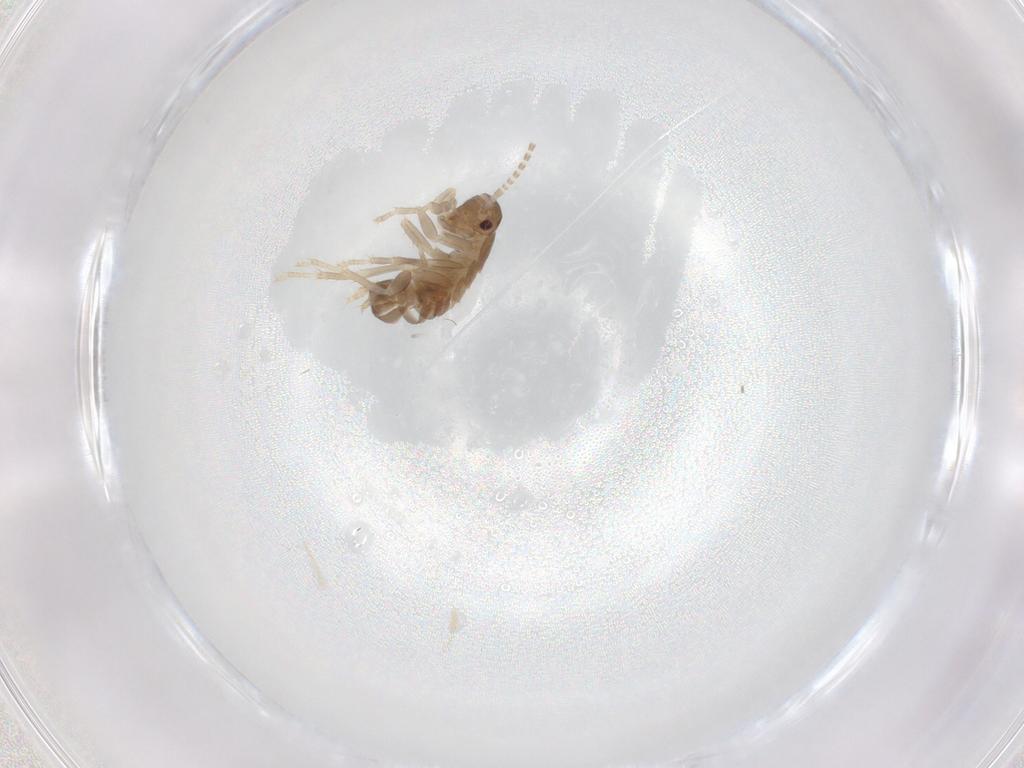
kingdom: Animalia
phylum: Arthropoda
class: Insecta
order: Blattodea
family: Ectobiidae
